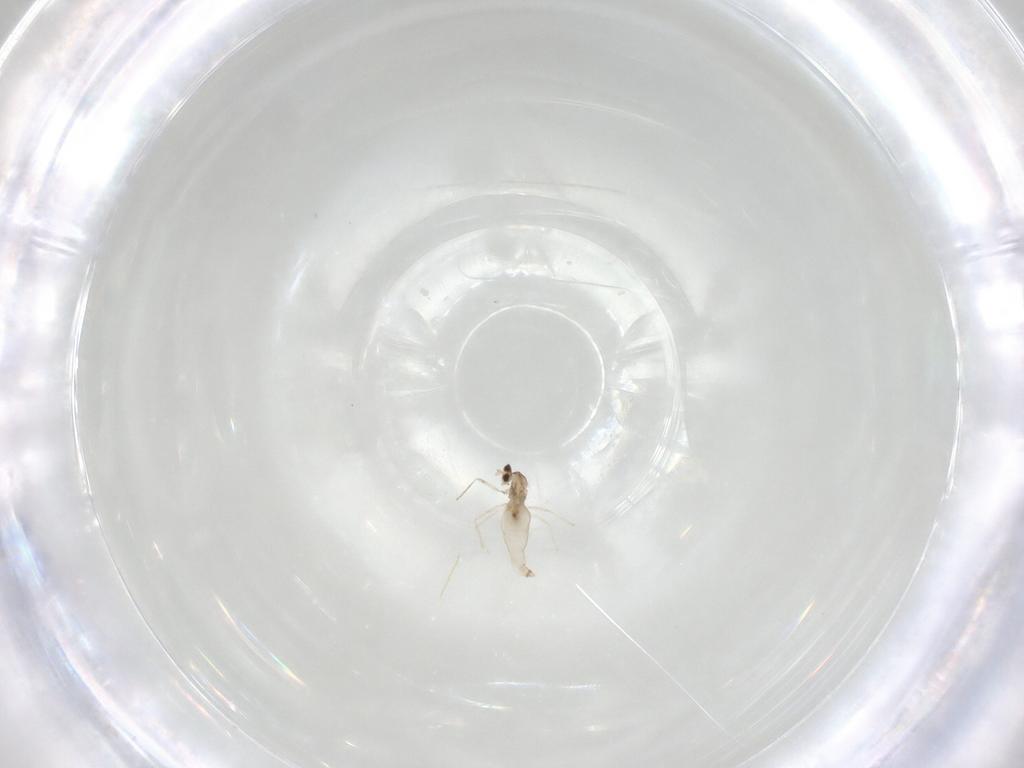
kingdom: Animalia
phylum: Arthropoda
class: Insecta
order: Diptera
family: Cecidomyiidae
